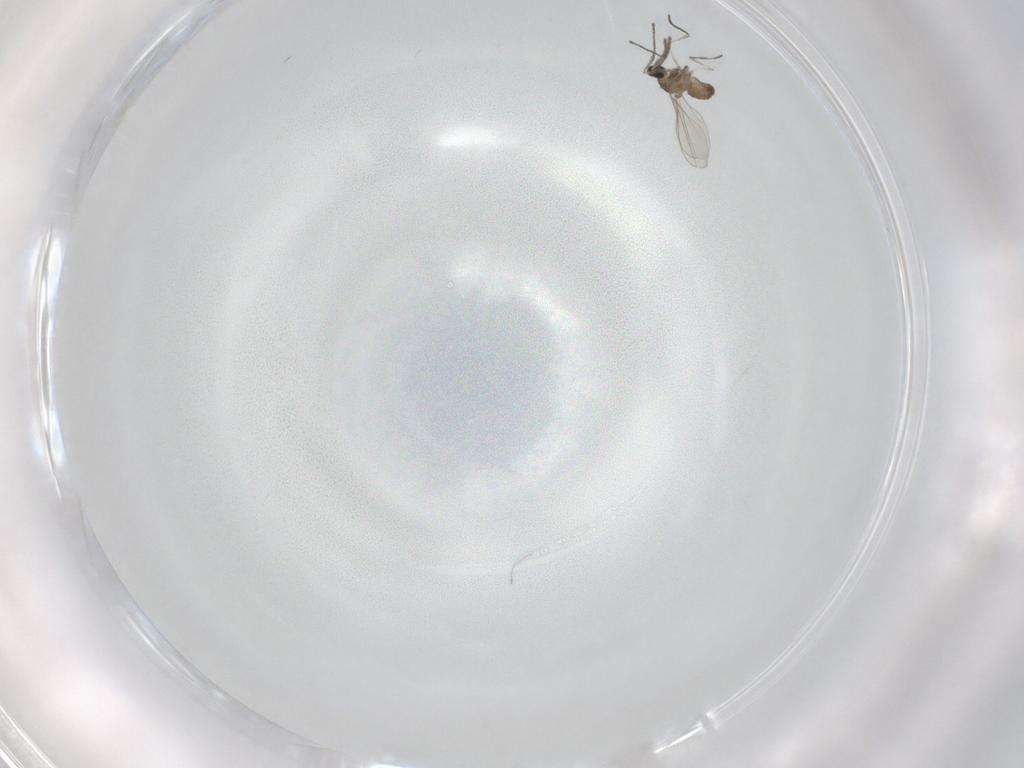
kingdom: Animalia
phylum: Arthropoda
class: Insecta
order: Diptera
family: Cecidomyiidae
